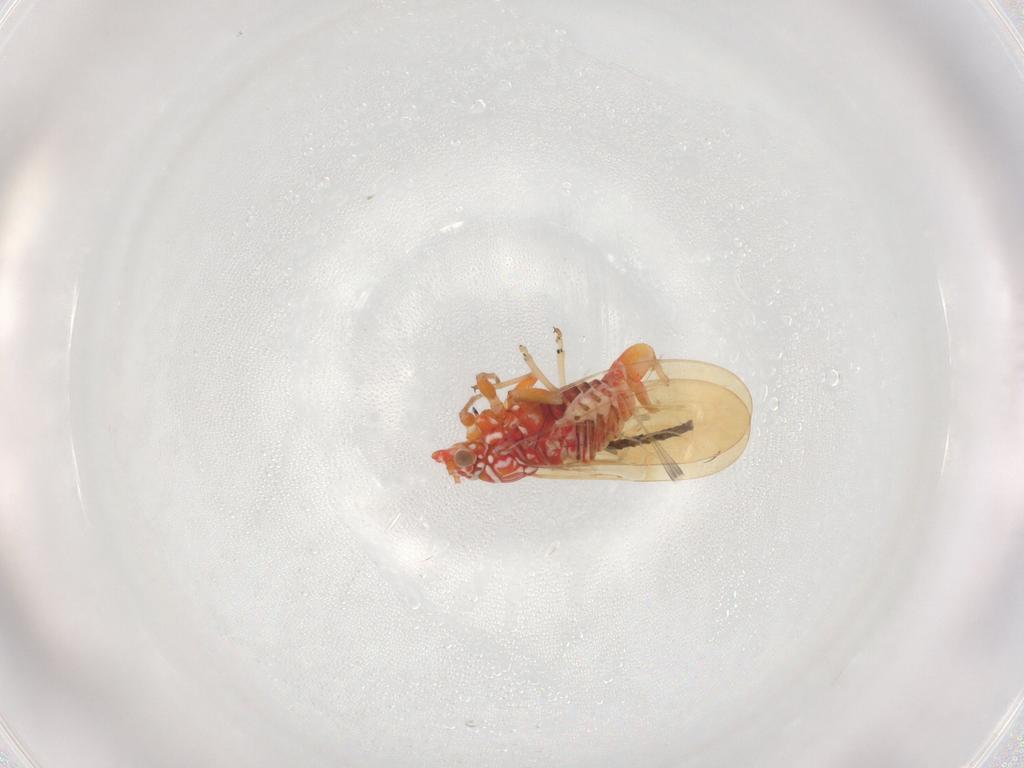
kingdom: Animalia
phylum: Arthropoda
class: Insecta
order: Hemiptera
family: Psyllidae
